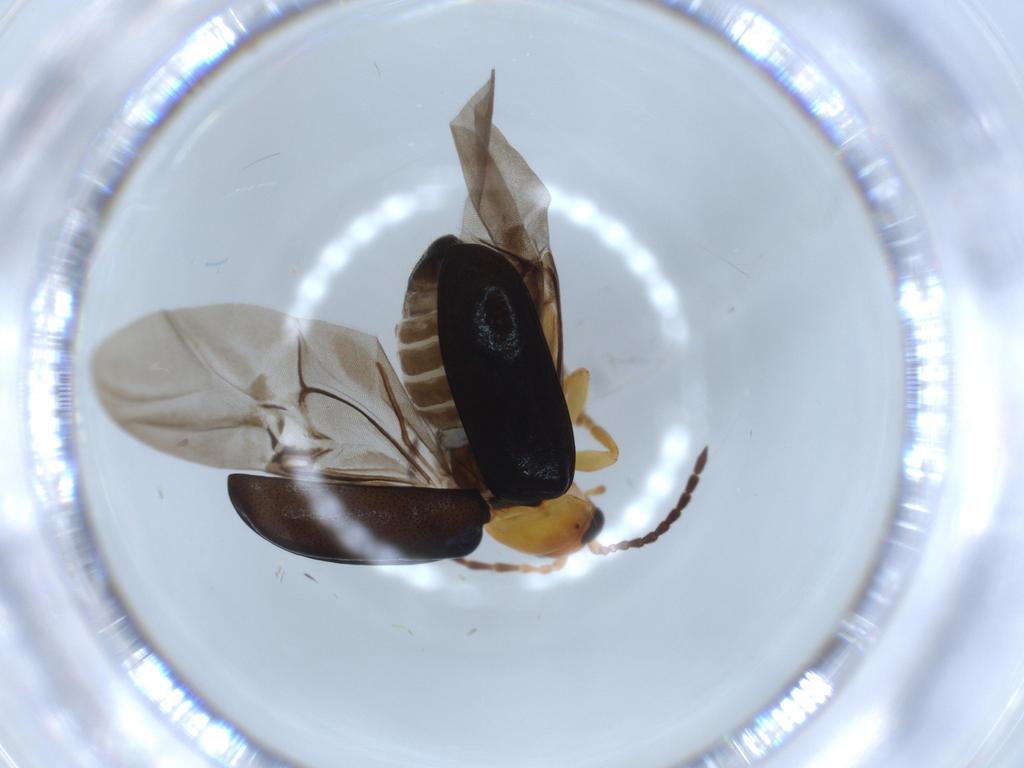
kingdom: Animalia
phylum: Arthropoda
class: Insecta
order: Coleoptera
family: Chrysomelidae
